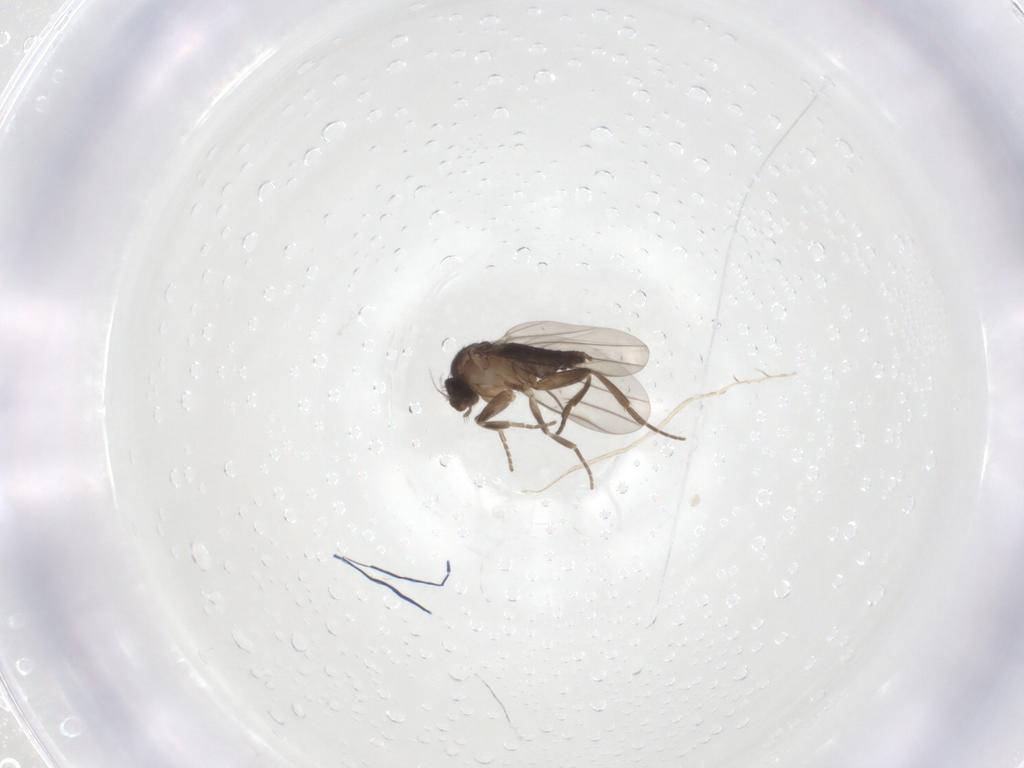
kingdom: Animalia
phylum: Arthropoda
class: Insecta
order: Diptera
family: Phoridae
